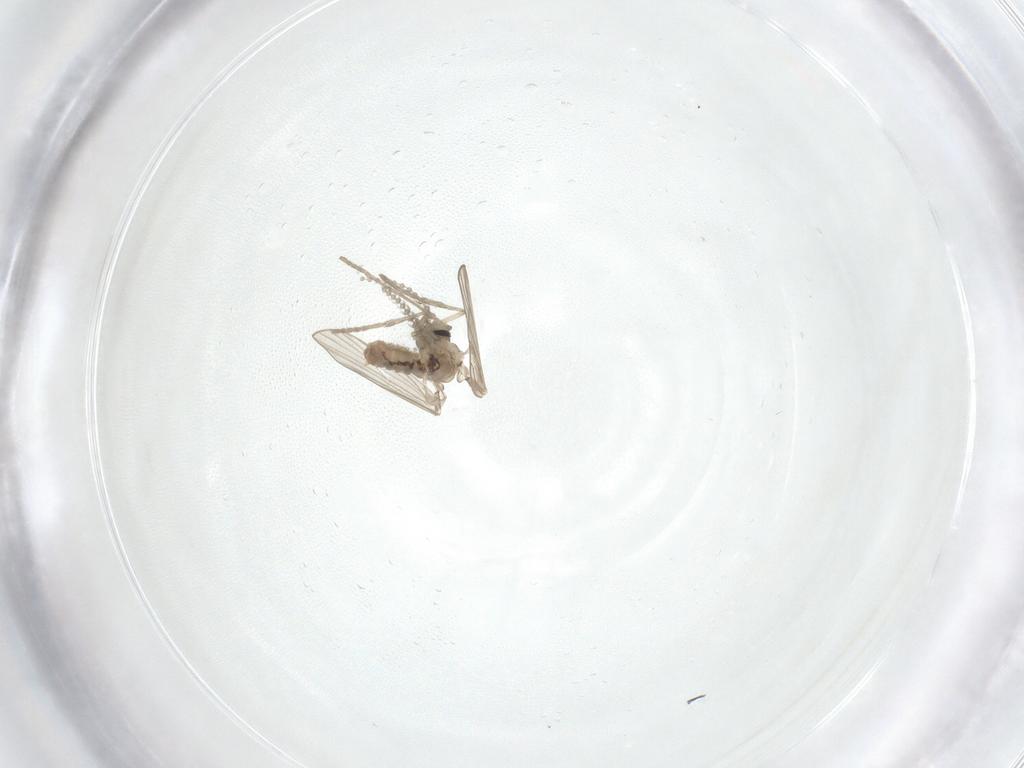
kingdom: Animalia
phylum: Arthropoda
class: Insecta
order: Diptera
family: Psychodidae
